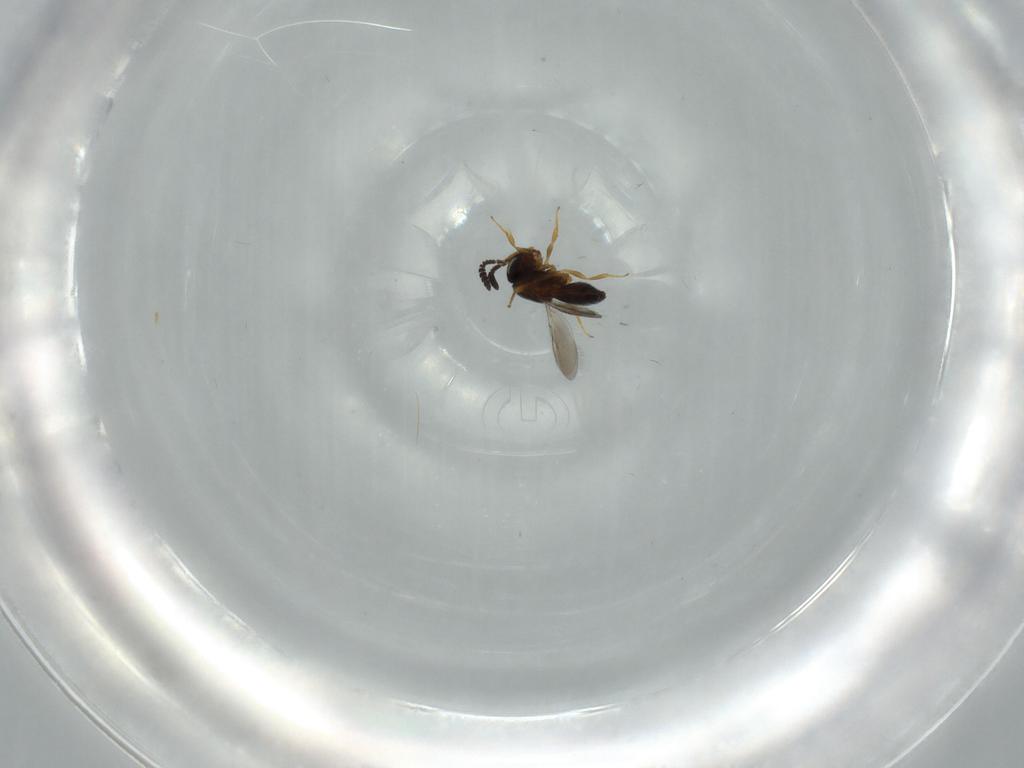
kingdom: Animalia
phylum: Arthropoda
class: Insecta
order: Hymenoptera
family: Scelionidae
